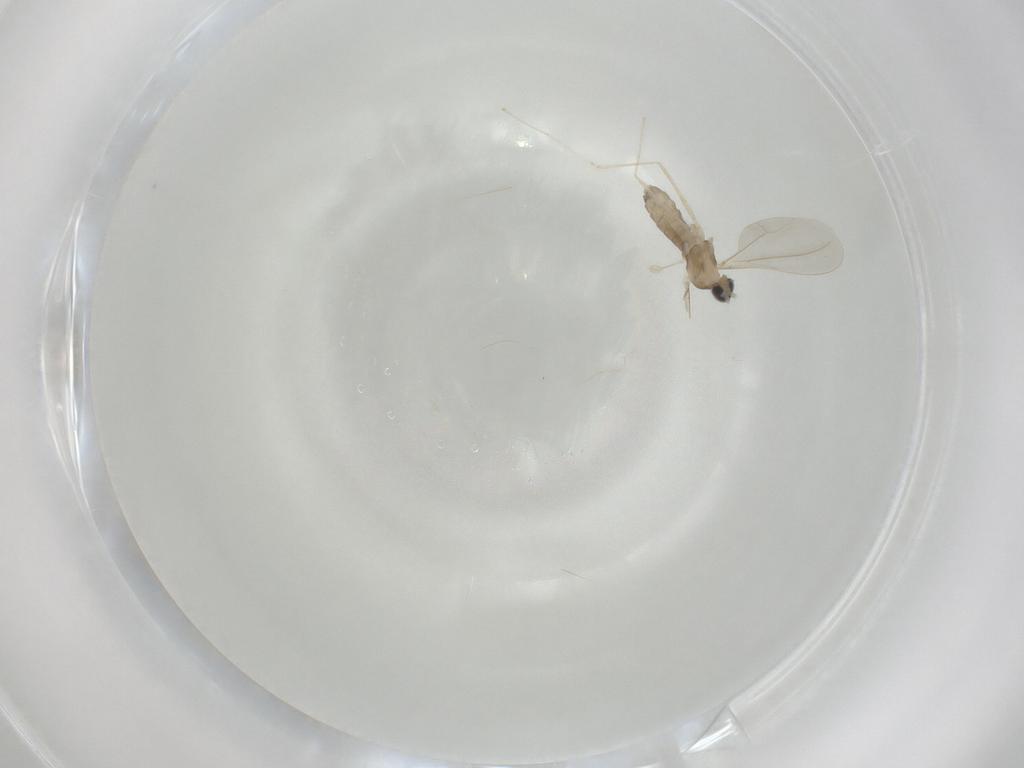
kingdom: Animalia
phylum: Arthropoda
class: Insecta
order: Diptera
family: Cecidomyiidae
